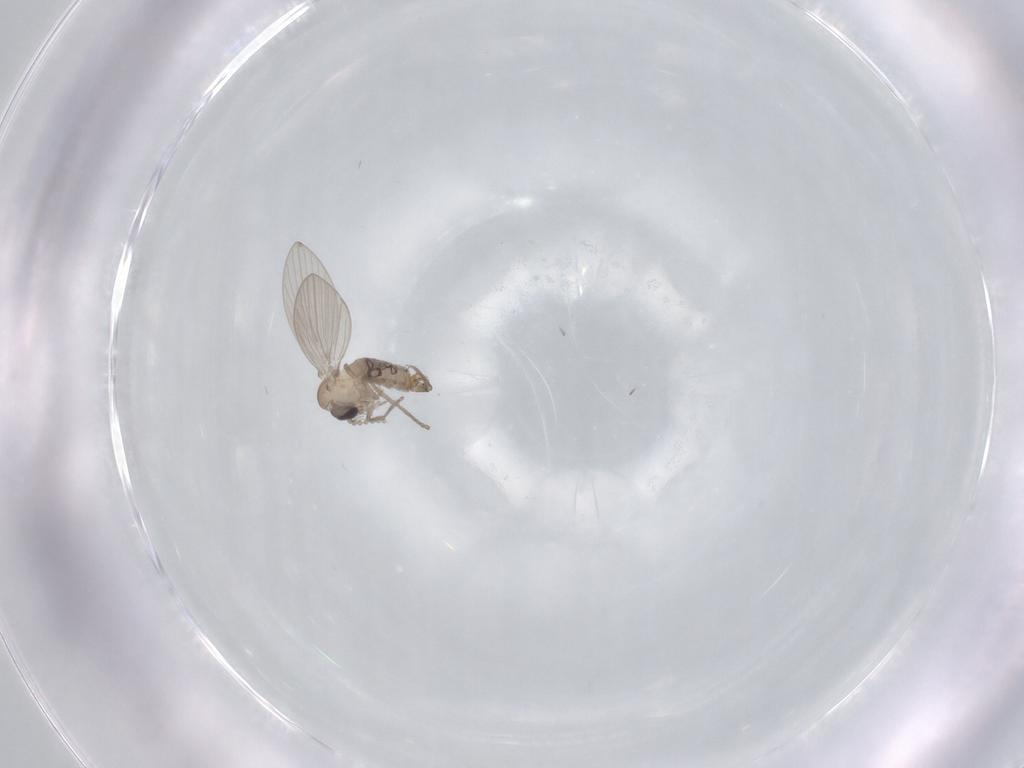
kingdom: Animalia
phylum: Arthropoda
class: Insecta
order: Diptera
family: Psychodidae
